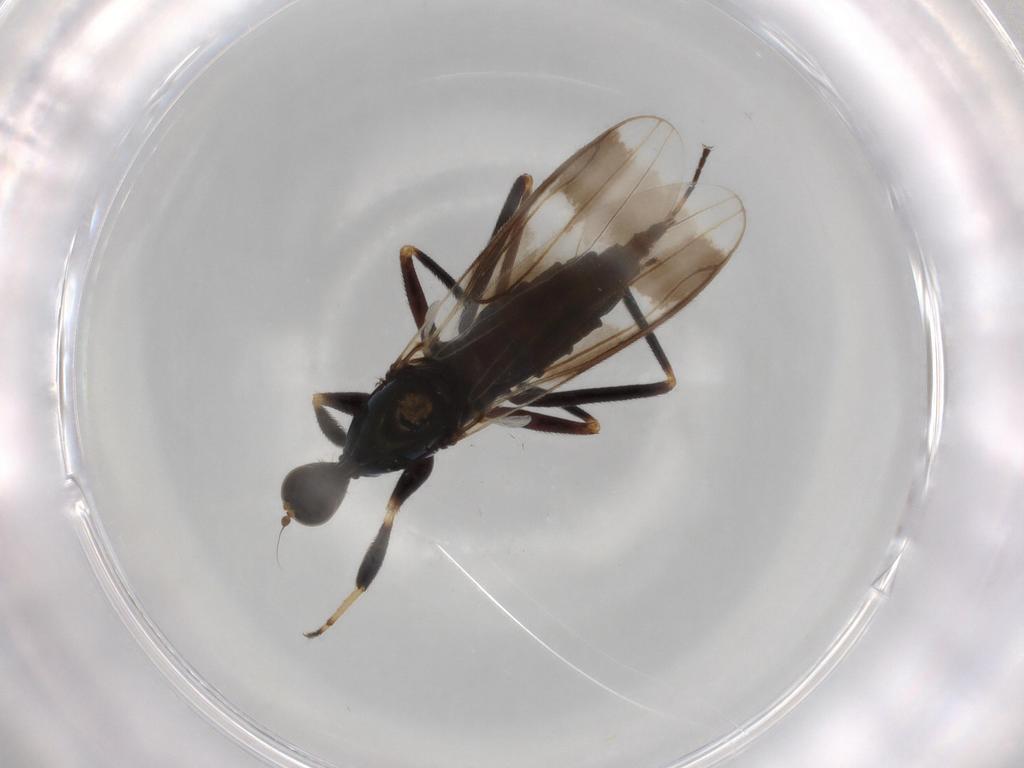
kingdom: Animalia
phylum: Arthropoda
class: Insecta
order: Diptera
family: Hybotidae
